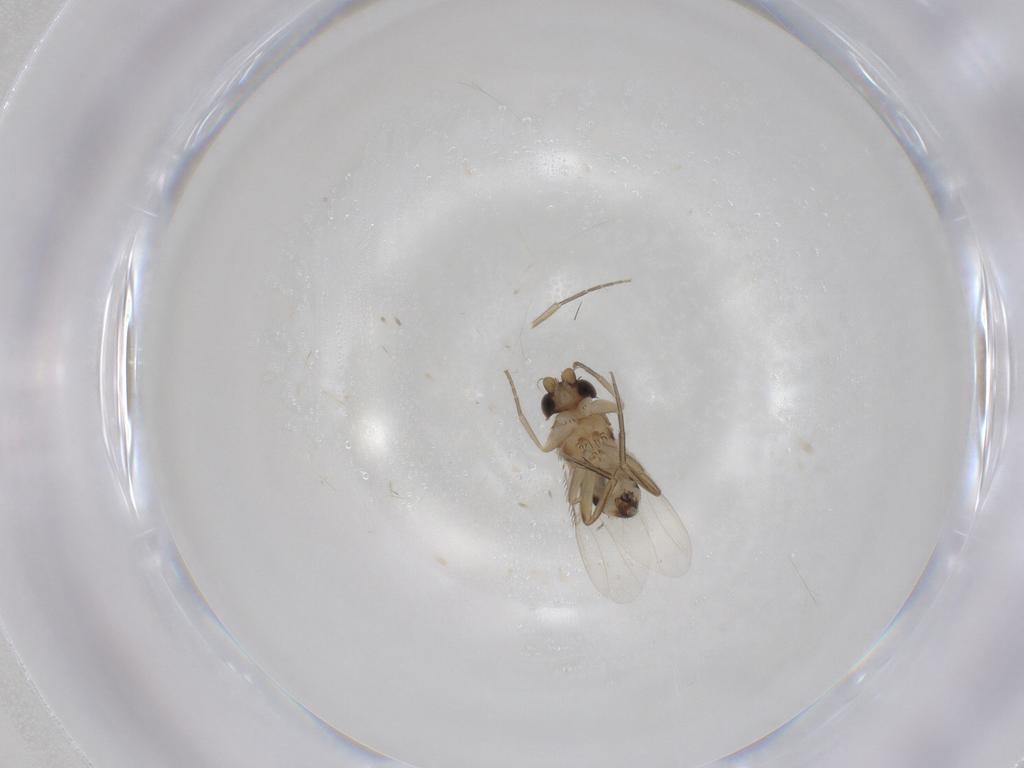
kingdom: Animalia
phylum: Arthropoda
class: Insecta
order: Diptera
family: Phoridae
